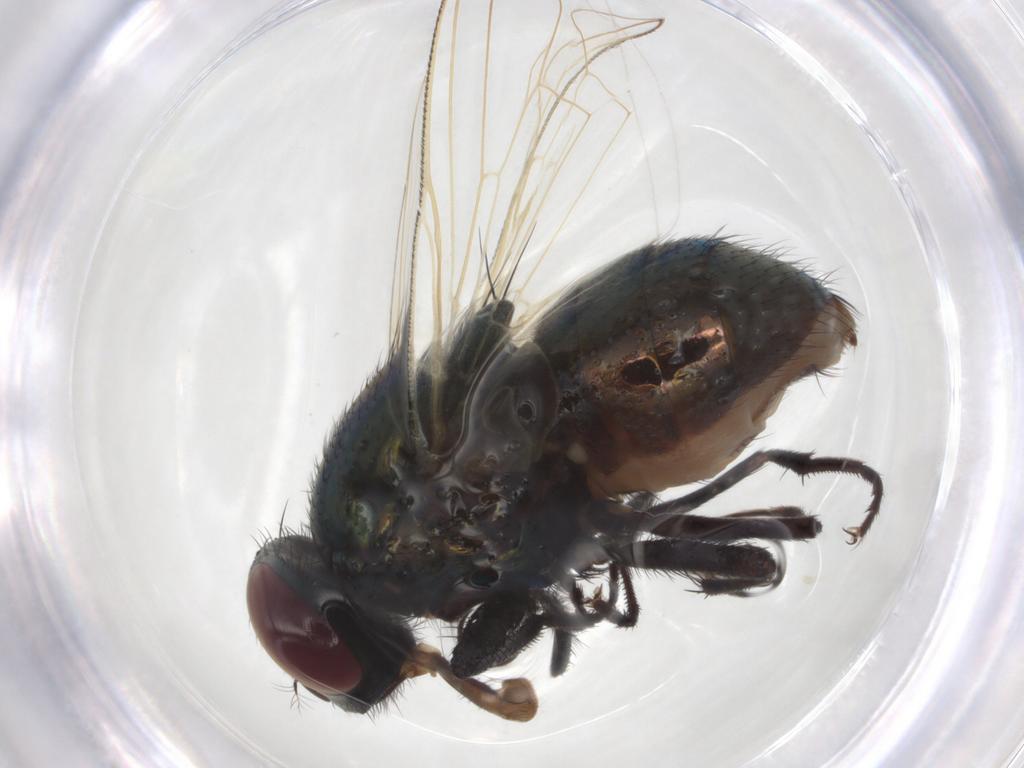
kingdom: Animalia
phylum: Arthropoda
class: Insecta
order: Diptera
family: Muscidae
